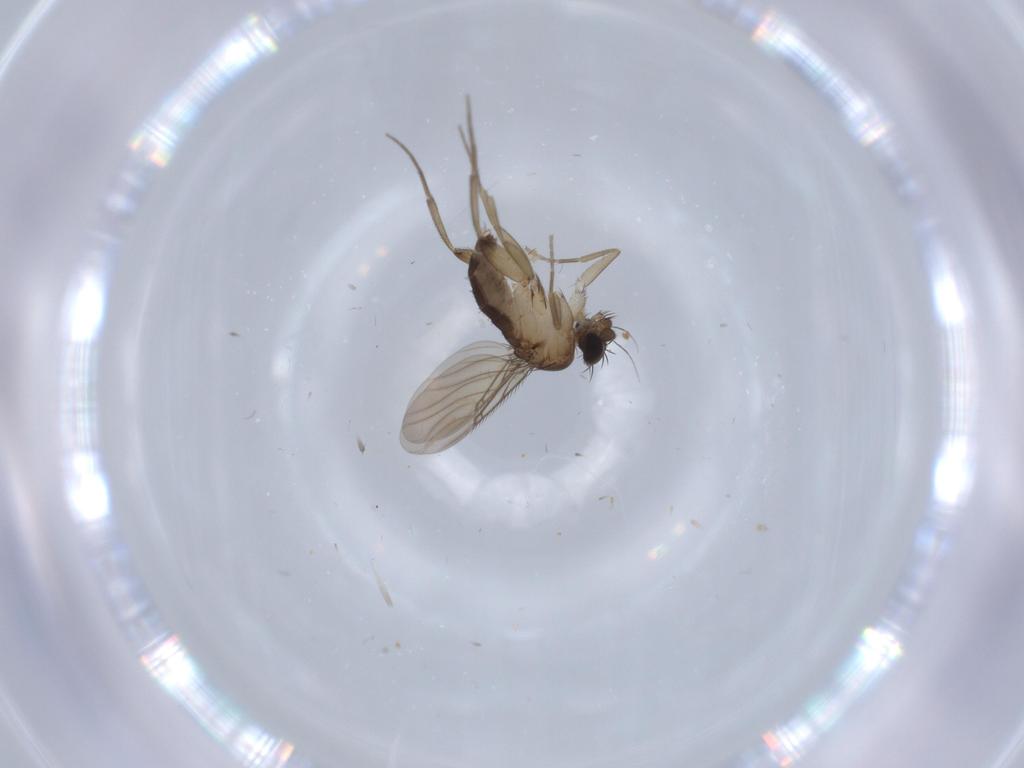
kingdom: Animalia
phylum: Arthropoda
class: Insecta
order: Diptera
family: Phoridae
